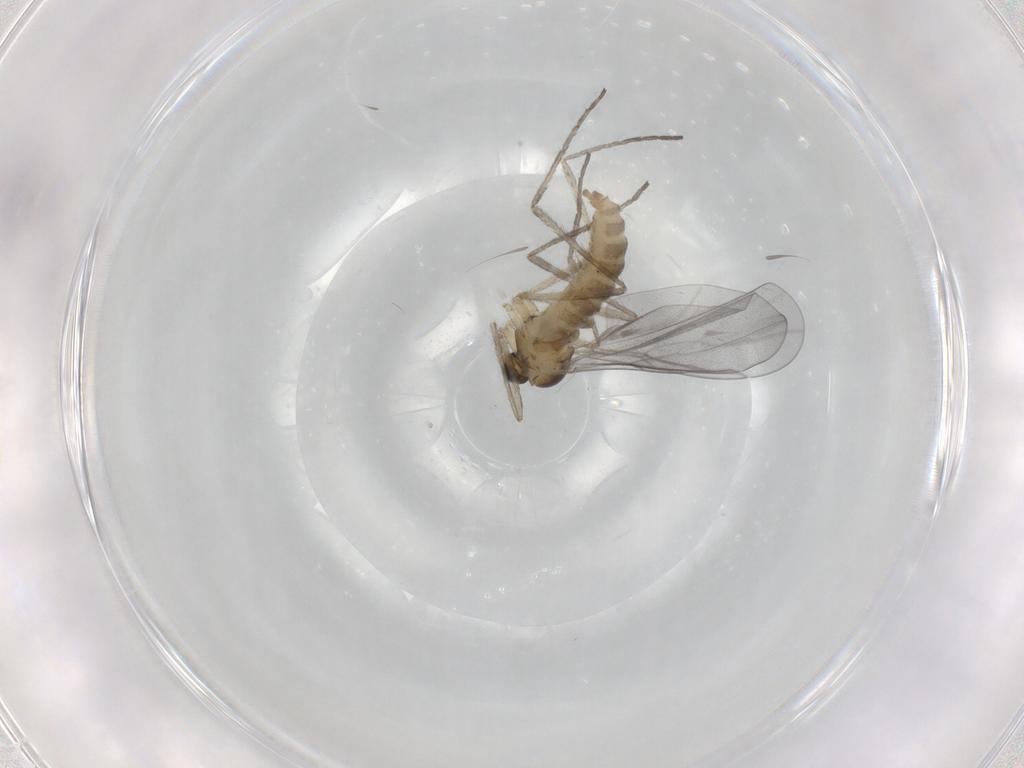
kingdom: Animalia
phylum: Arthropoda
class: Insecta
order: Diptera
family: Cecidomyiidae
